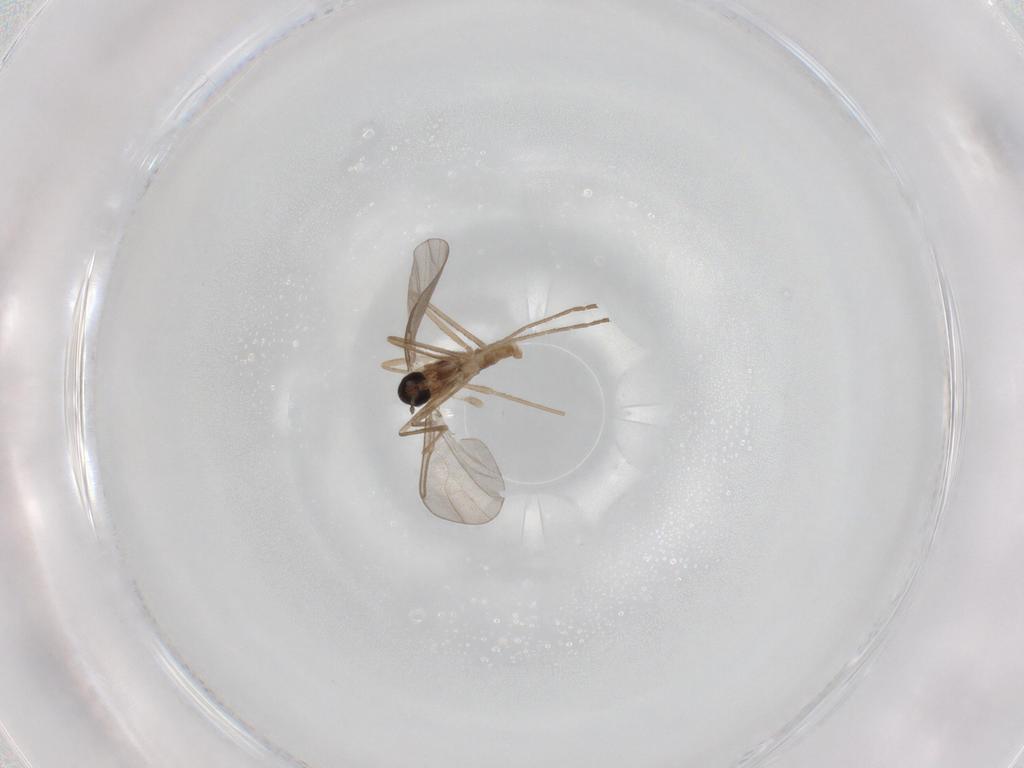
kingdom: Animalia
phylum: Arthropoda
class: Insecta
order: Diptera
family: Cecidomyiidae
